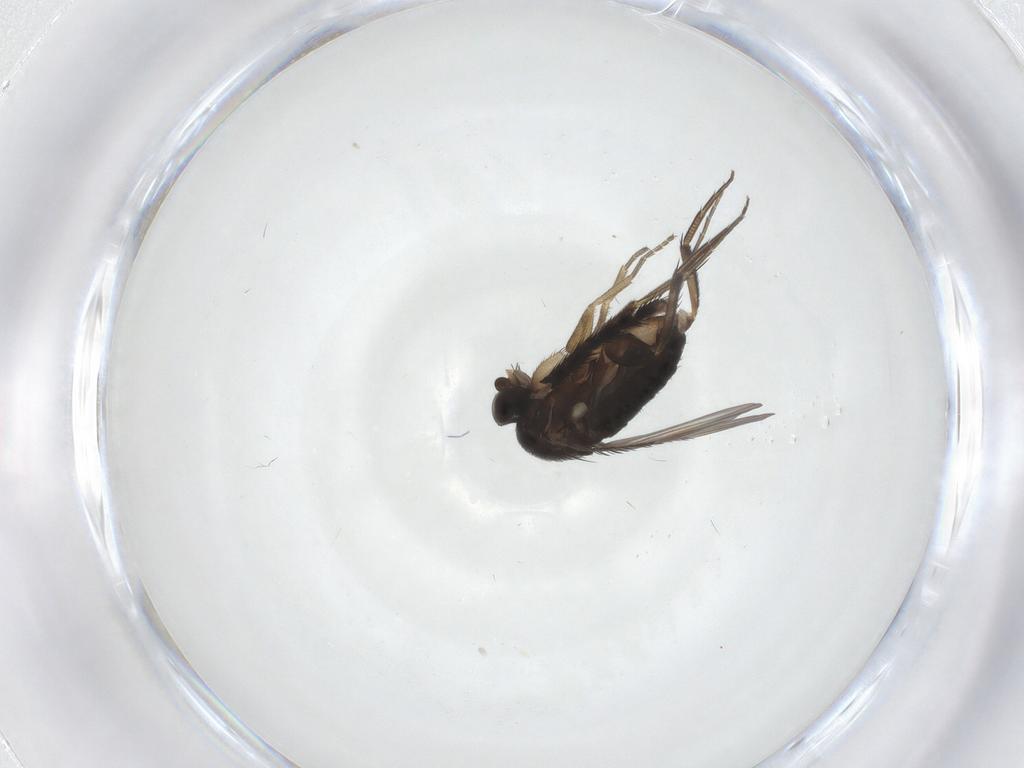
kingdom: Animalia
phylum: Arthropoda
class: Insecta
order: Diptera
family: Phoridae
